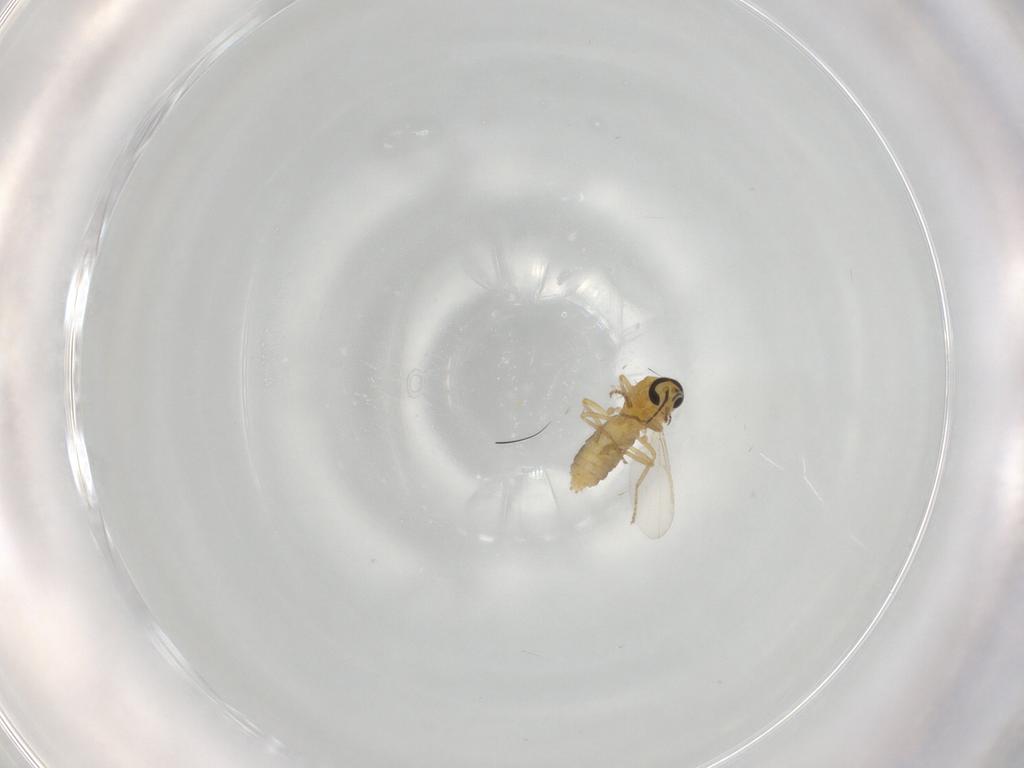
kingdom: Animalia
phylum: Arthropoda
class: Insecta
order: Diptera
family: Ceratopogonidae
